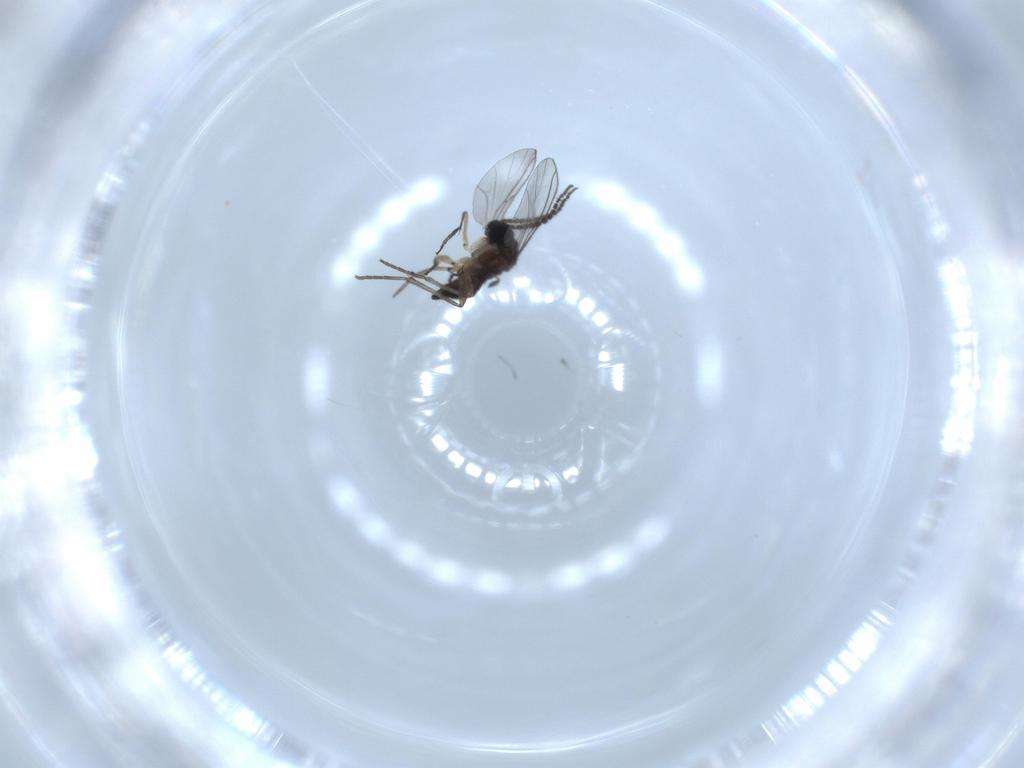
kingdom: Animalia
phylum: Arthropoda
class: Insecta
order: Diptera
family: Sciaridae
